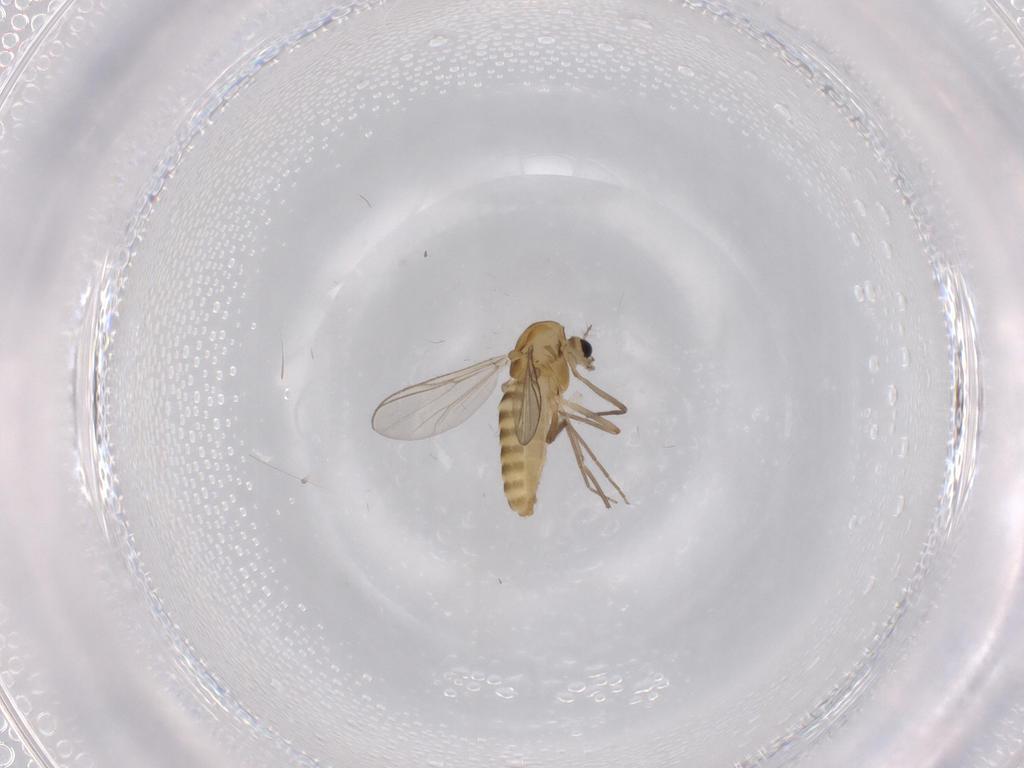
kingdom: Animalia
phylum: Arthropoda
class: Insecta
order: Diptera
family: Chironomidae
